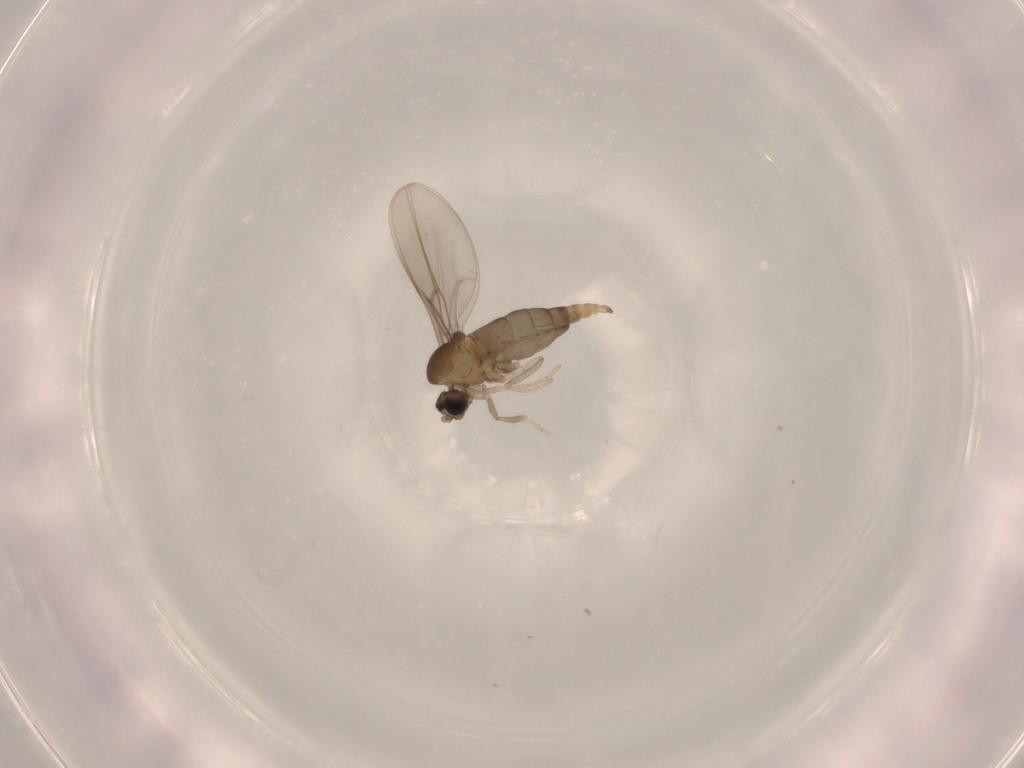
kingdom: Animalia
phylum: Arthropoda
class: Insecta
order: Diptera
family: Cecidomyiidae
